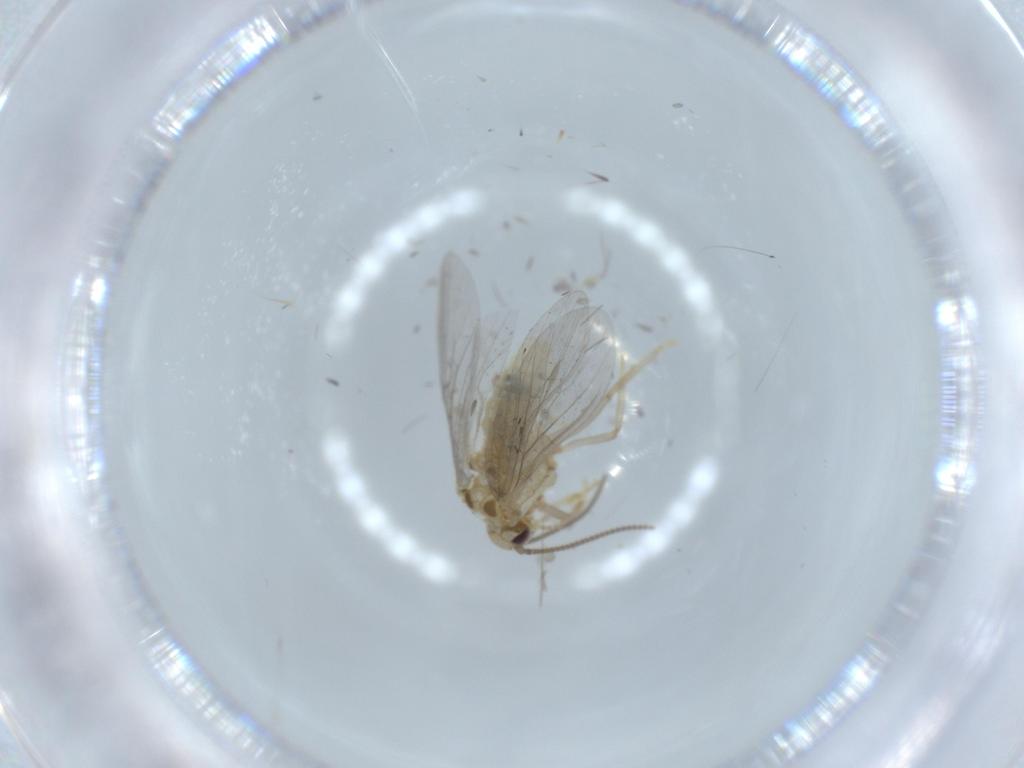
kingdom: Animalia
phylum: Arthropoda
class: Insecta
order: Neuroptera
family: Coniopterygidae
